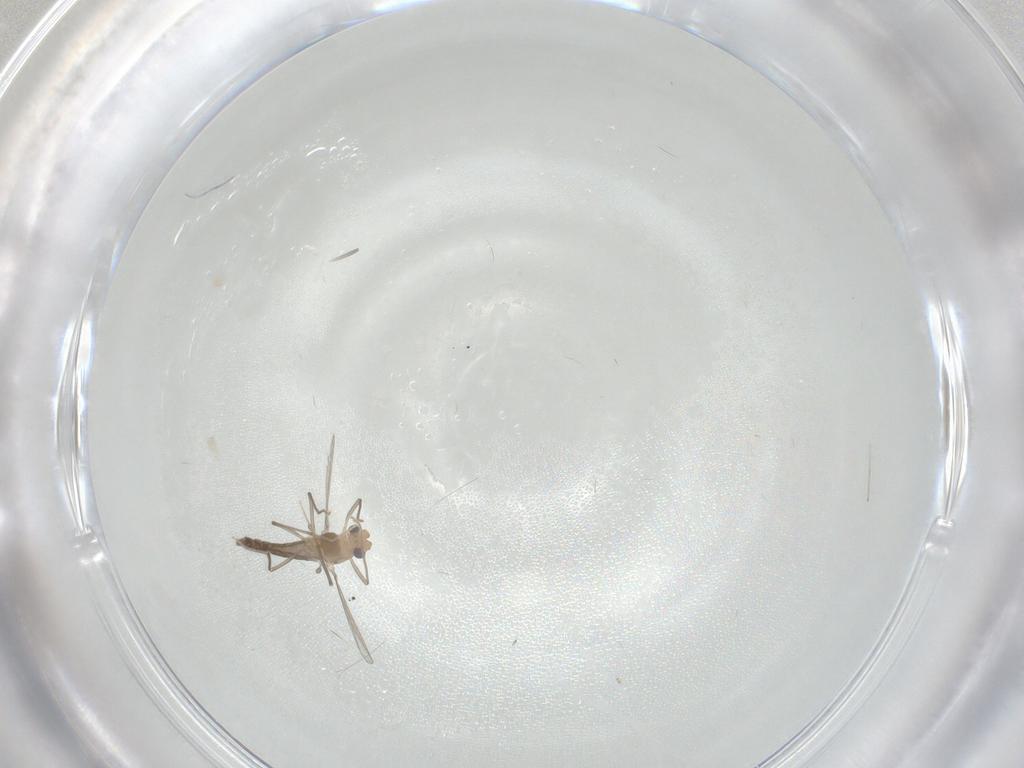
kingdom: Animalia
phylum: Arthropoda
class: Insecta
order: Diptera
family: Chironomidae
